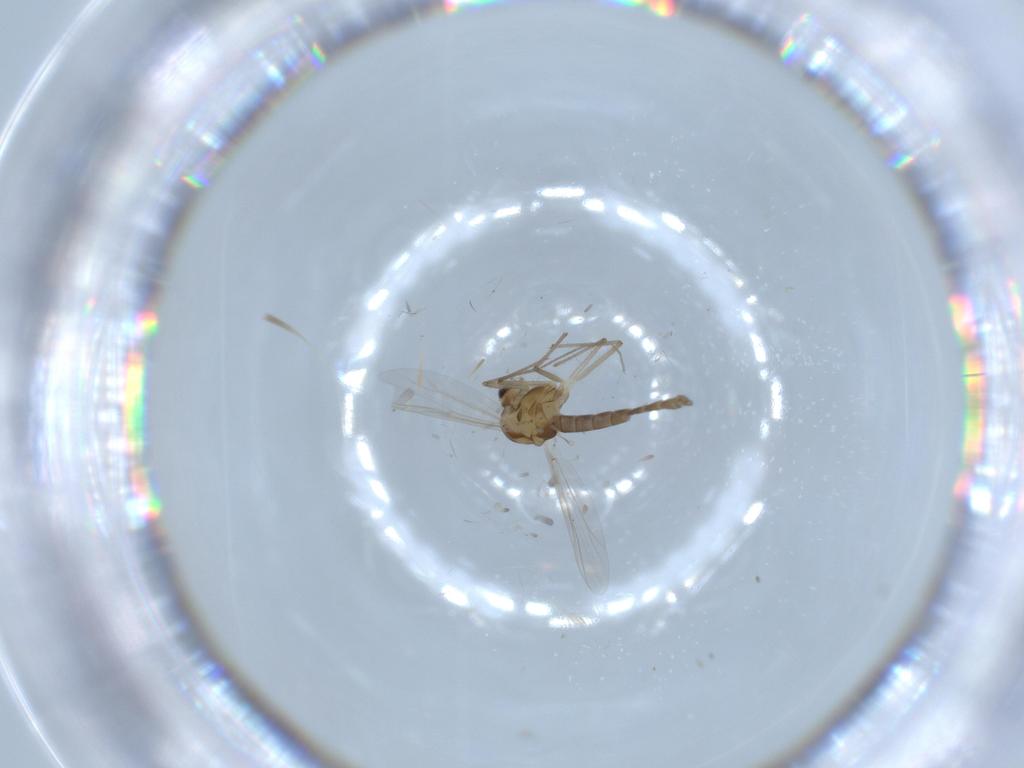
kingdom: Animalia
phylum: Arthropoda
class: Insecta
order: Diptera
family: Chironomidae
